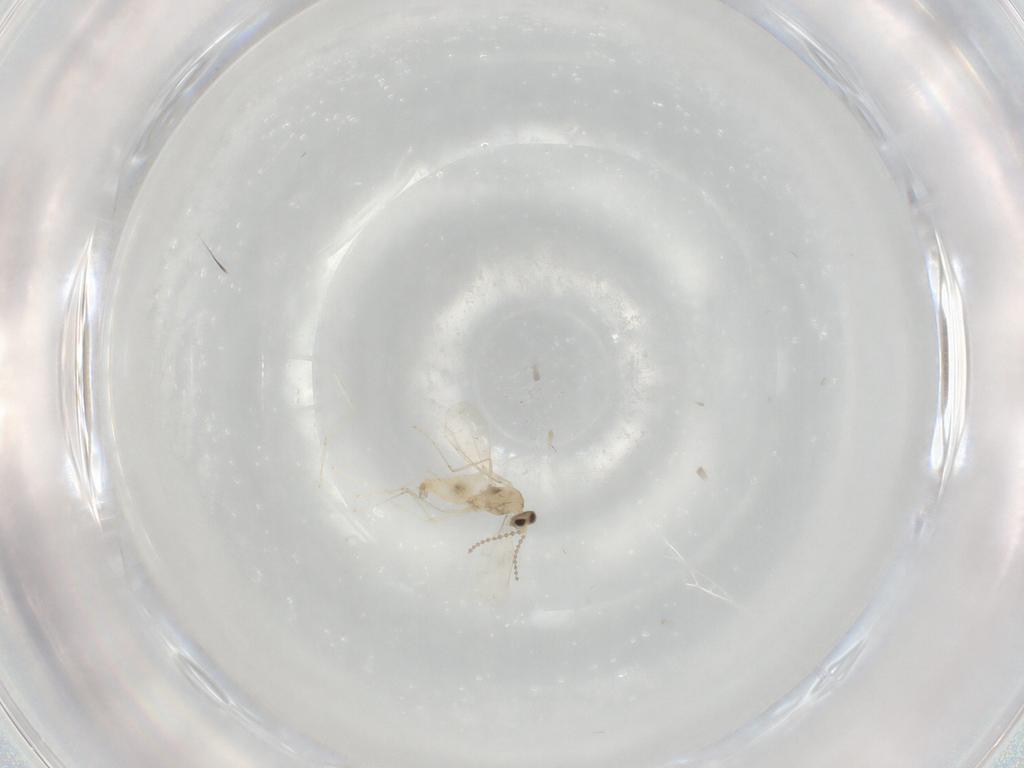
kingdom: Animalia
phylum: Arthropoda
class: Insecta
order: Diptera
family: Cecidomyiidae
